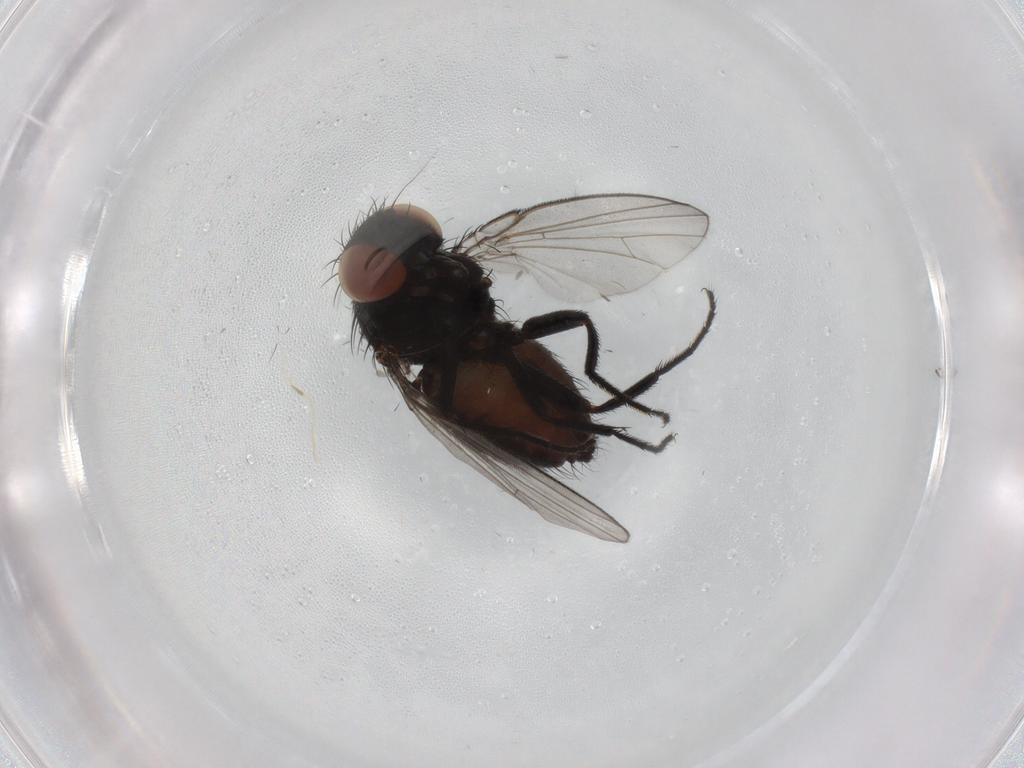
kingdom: Animalia
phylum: Arthropoda
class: Insecta
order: Diptera
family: Milichiidae
